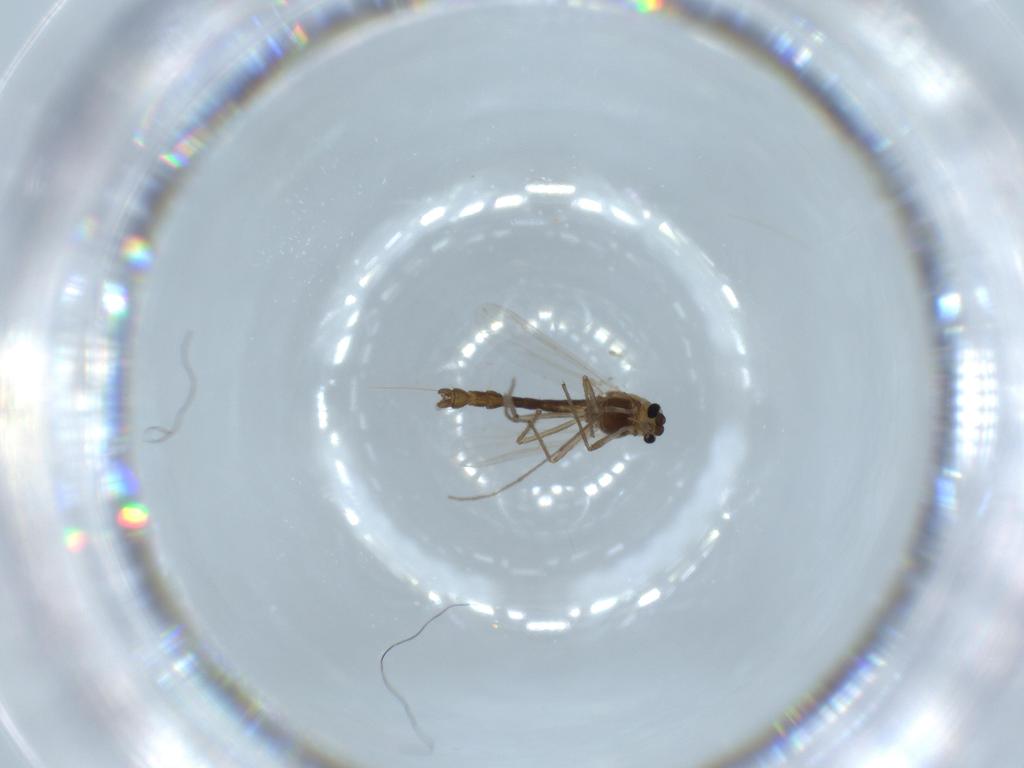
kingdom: Animalia
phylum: Arthropoda
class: Insecta
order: Diptera
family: Chironomidae
